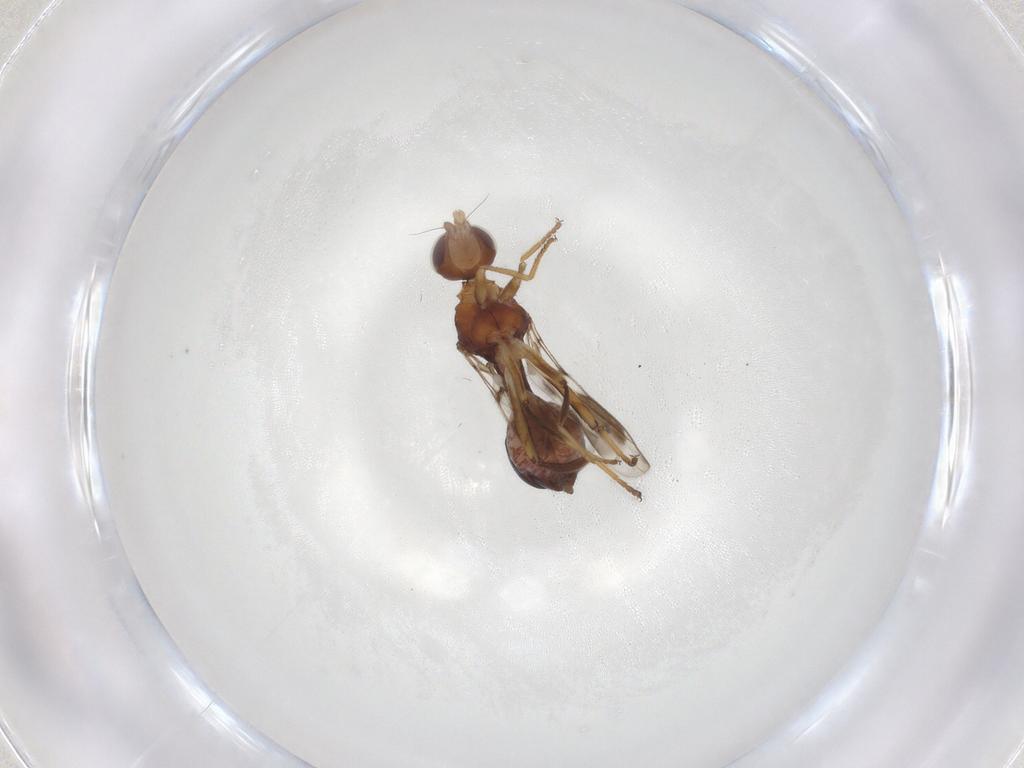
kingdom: Animalia
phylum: Arthropoda
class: Insecta
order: Diptera
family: Chloropidae
